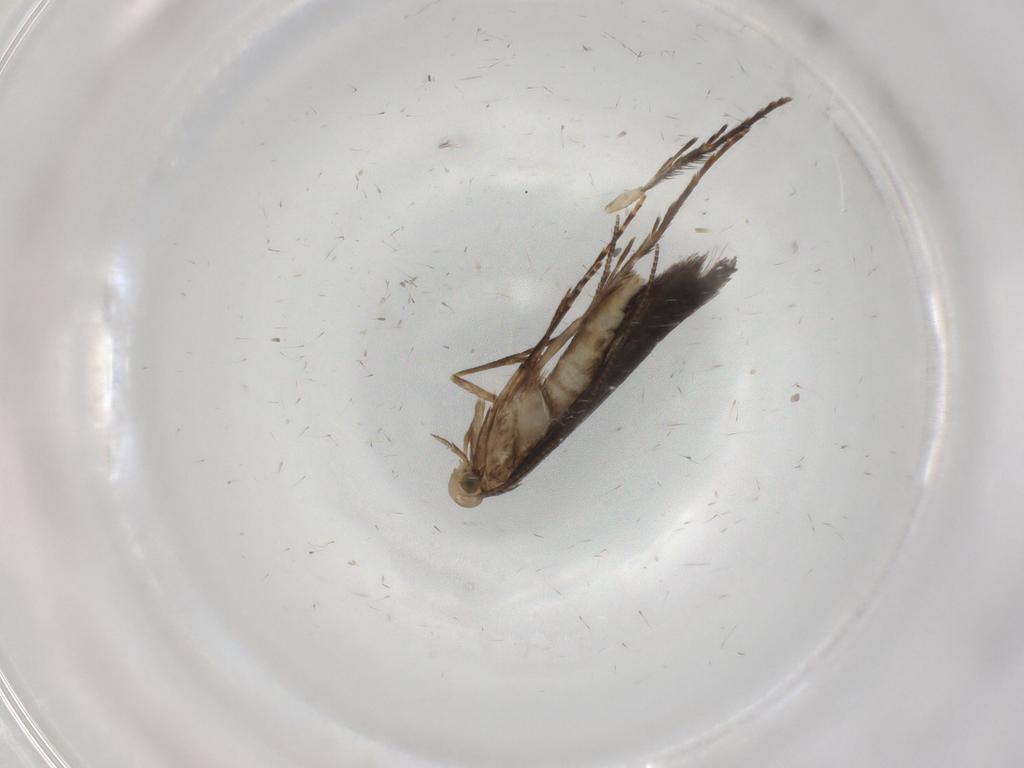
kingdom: Animalia
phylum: Arthropoda
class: Insecta
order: Lepidoptera
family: Gracillariidae
